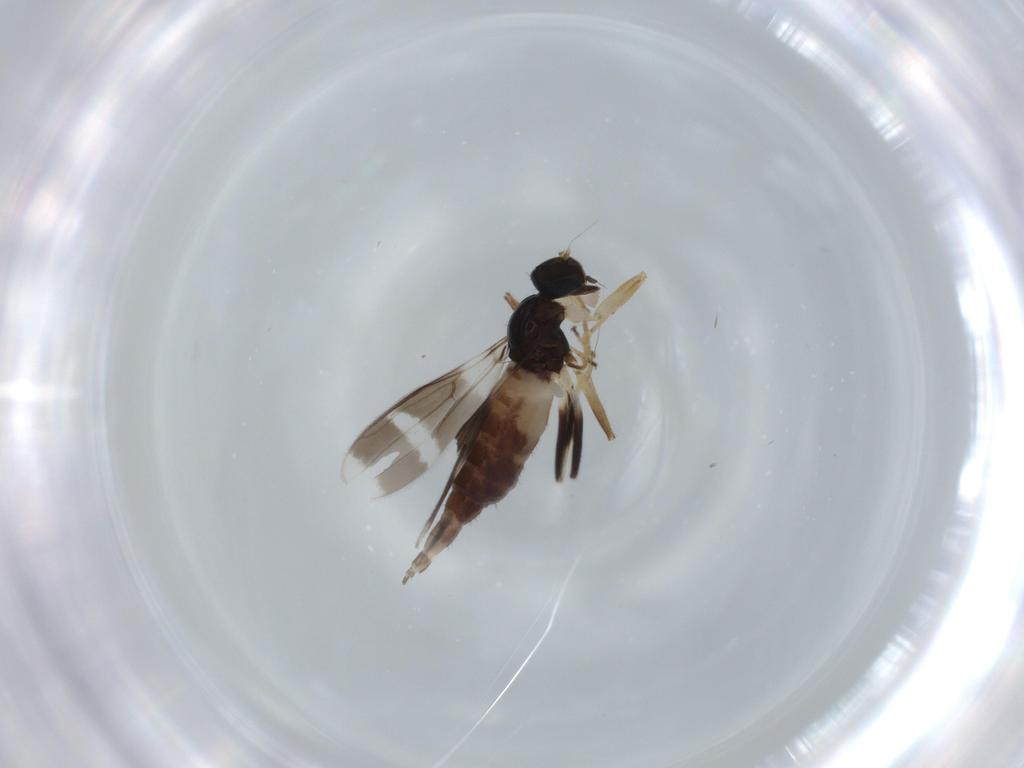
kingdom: Animalia
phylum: Arthropoda
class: Insecta
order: Diptera
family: Hybotidae
